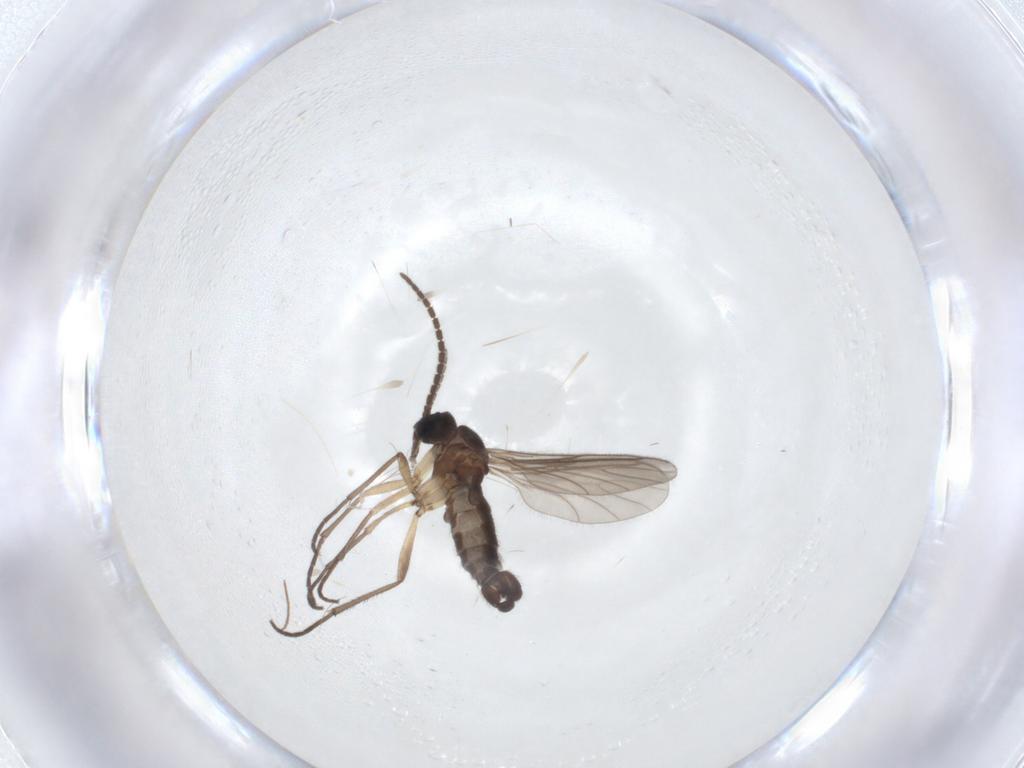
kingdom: Animalia
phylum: Arthropoda
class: Insecta
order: Diptera
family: Sciaridae
